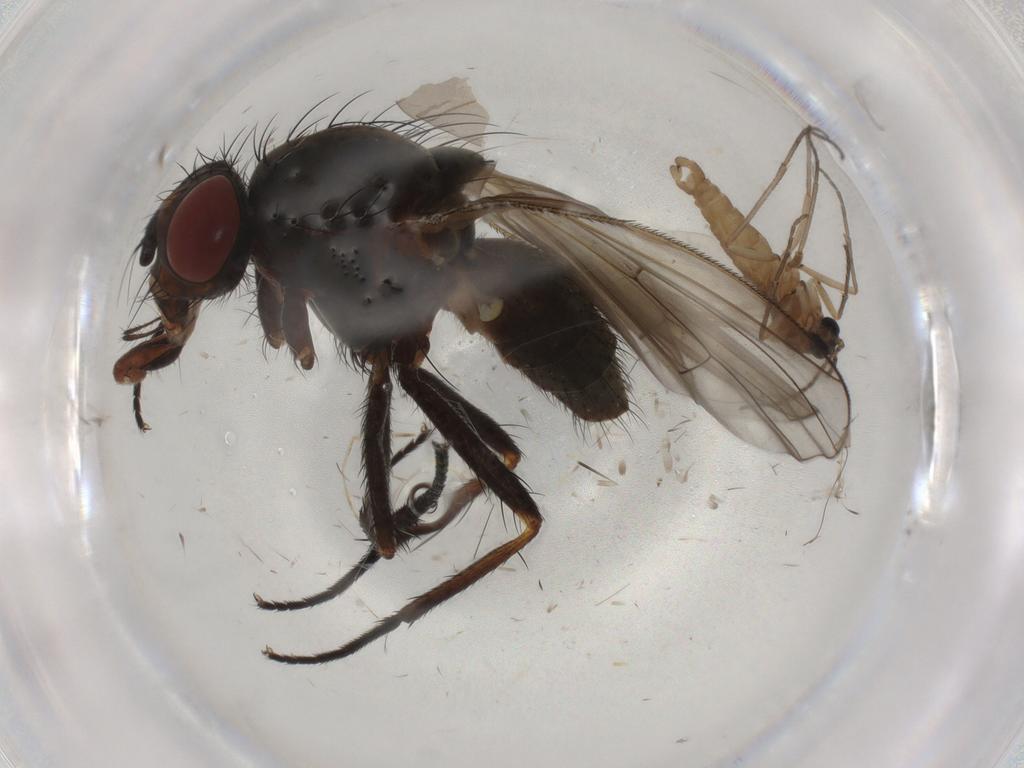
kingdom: Animalia
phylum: Arthropoda
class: Insecta
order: Diptera
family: Anthomyiidae
